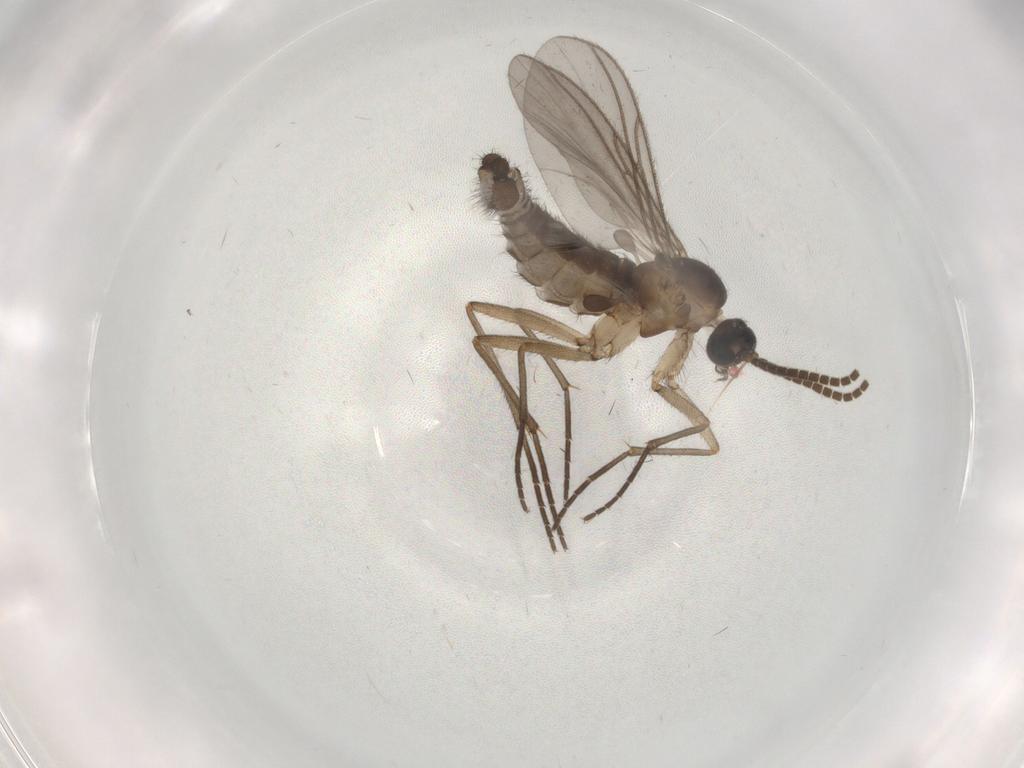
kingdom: Animalia
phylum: Arthropoda
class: Insecta
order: Diptera
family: Sciaridae
